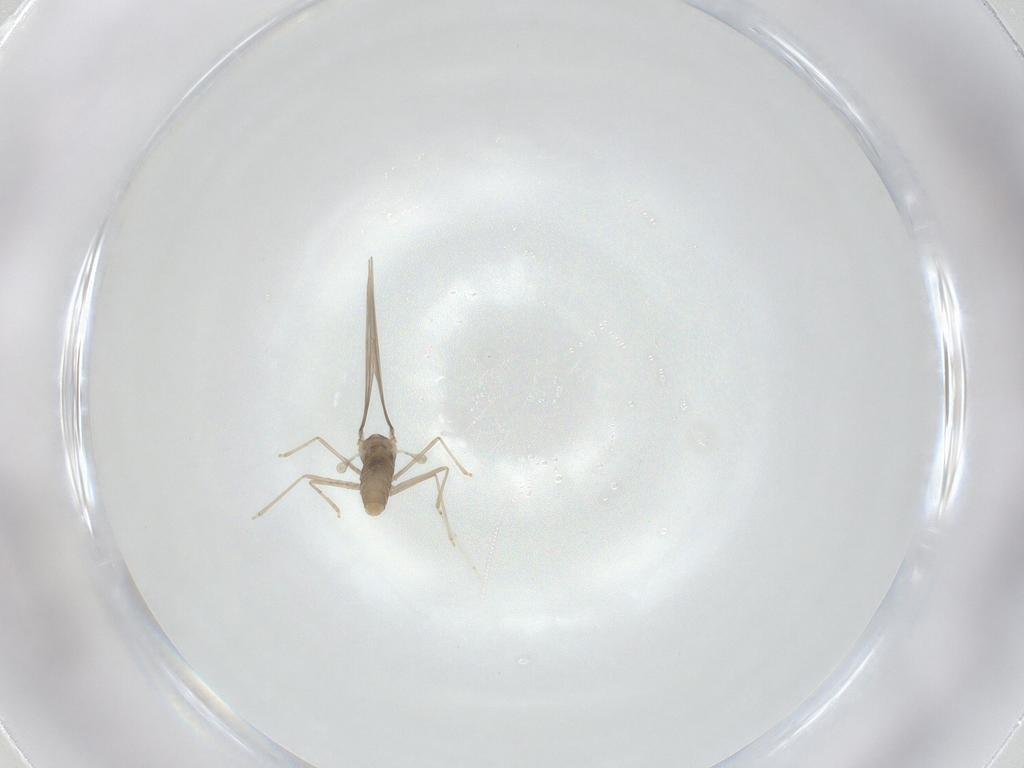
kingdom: Animalia
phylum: Arthropoda
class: Insecta
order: Diptera
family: Cecidomyiidae
